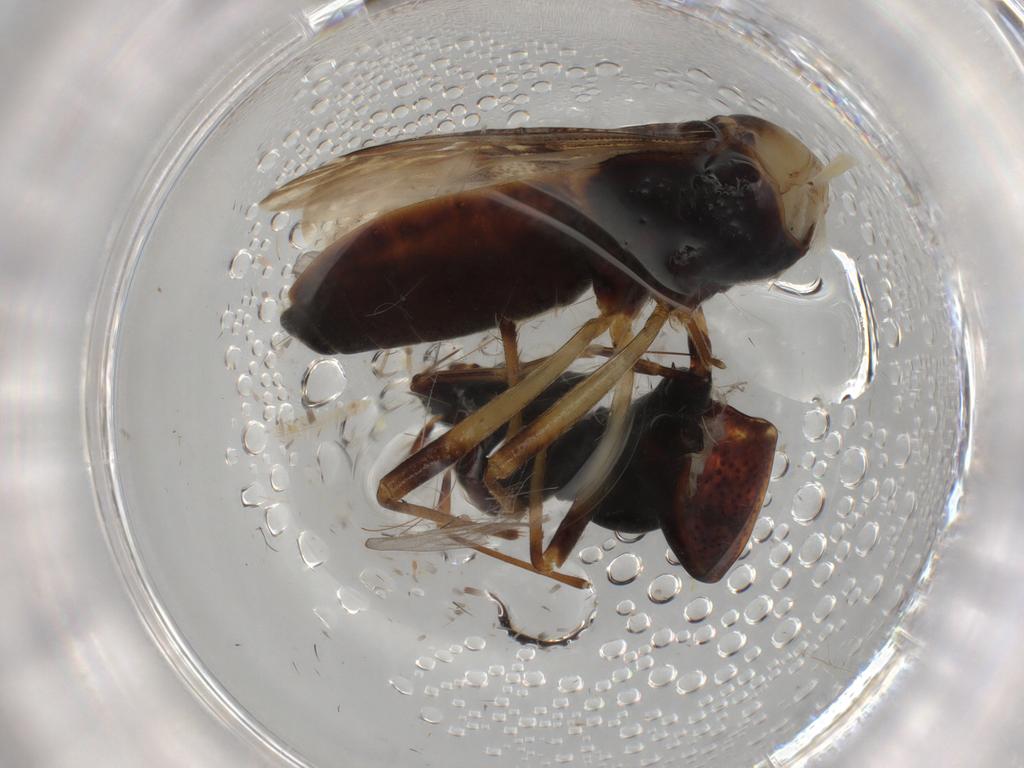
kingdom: Animalia
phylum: Arthropoda
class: Insecta
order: Hemiptera
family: Rhyparochromidae
